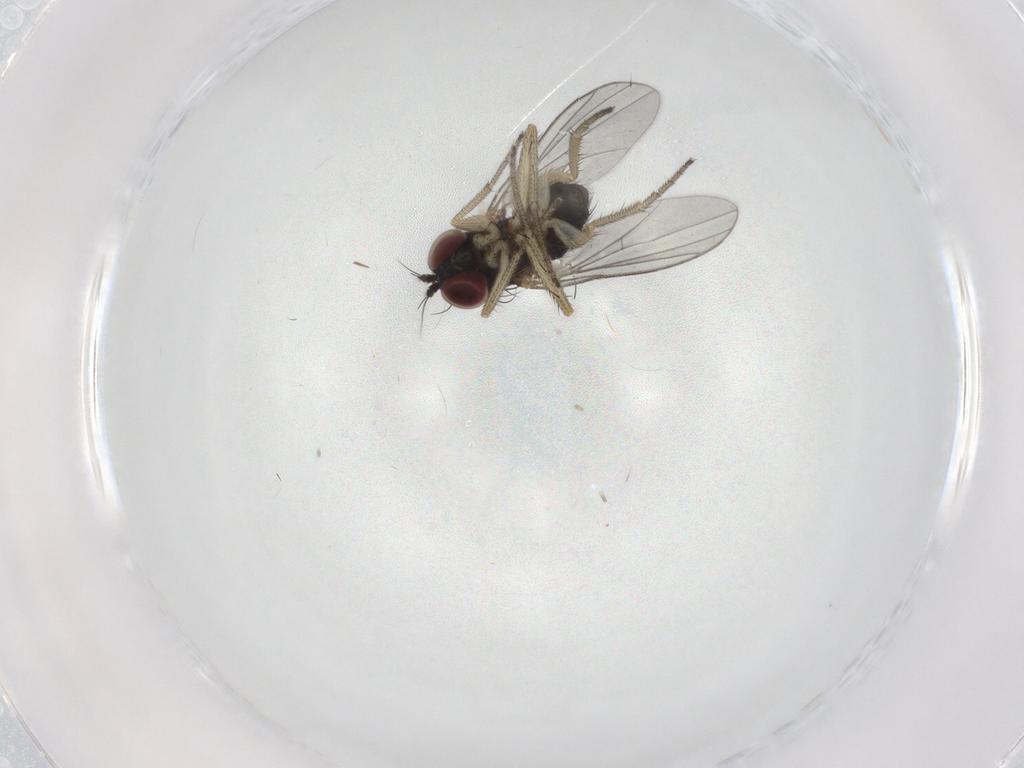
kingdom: Animalia
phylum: Arthropoda
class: Insecta
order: Diptera
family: Dolichopodidae
